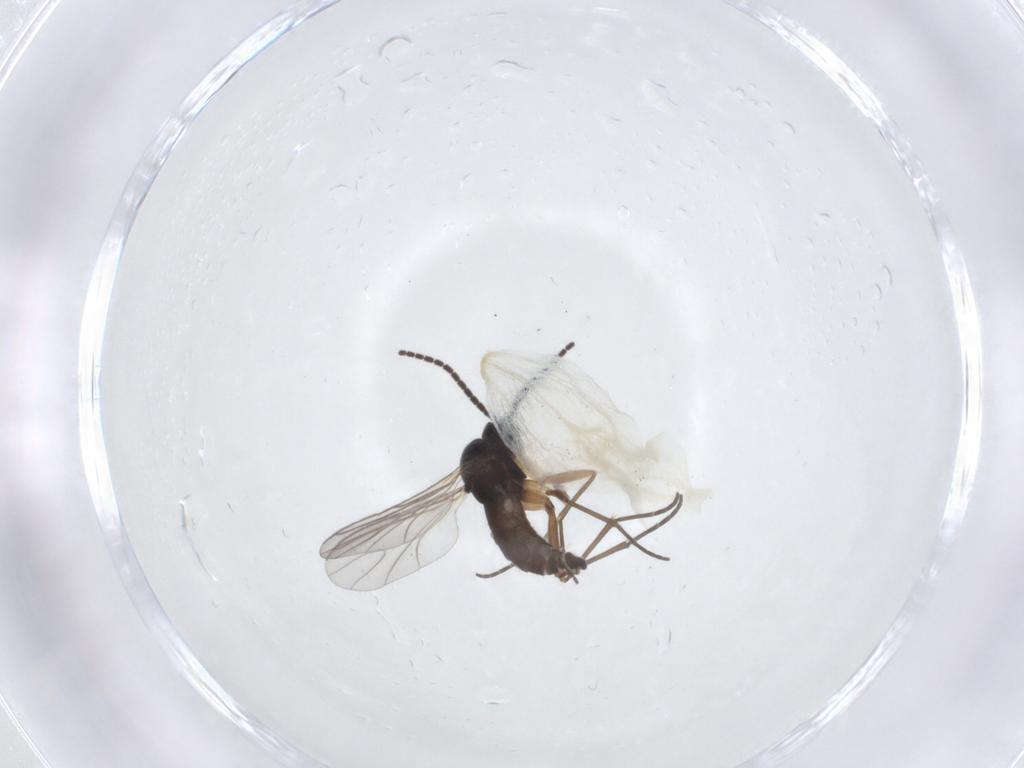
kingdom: Animalia
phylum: Arthropoda
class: Insecta
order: Diptera
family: Sciaridae
